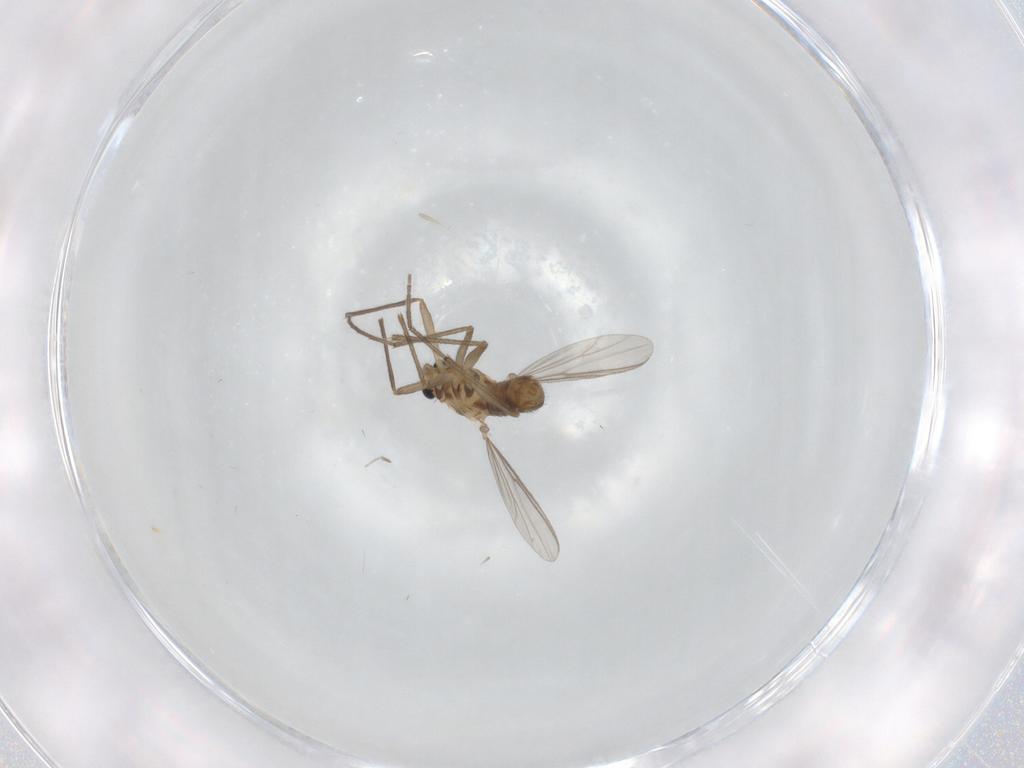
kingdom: Animalia
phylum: Arthropoda
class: Insecta
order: Diptera
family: Chironomidae
